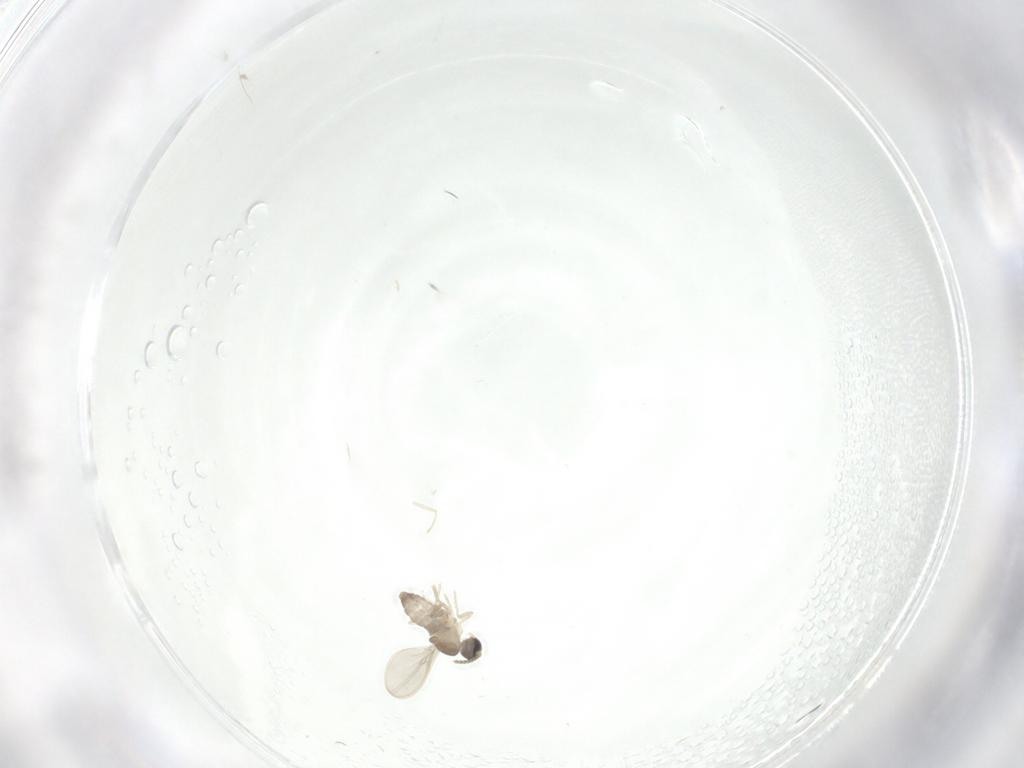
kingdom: Animalia
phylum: Arthropoda
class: Insecta
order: Diptera
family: Cecidomyiidae
